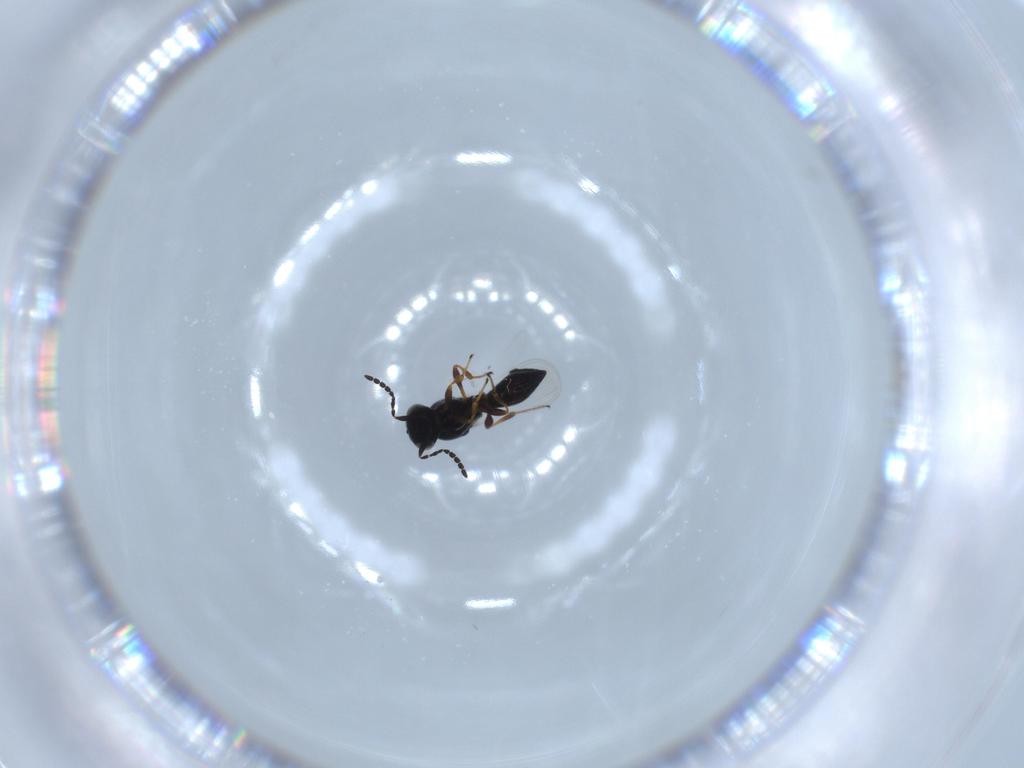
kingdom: Animalia
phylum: Arthropoda
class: Insecta
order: Hymenoptera
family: Platygastridae
